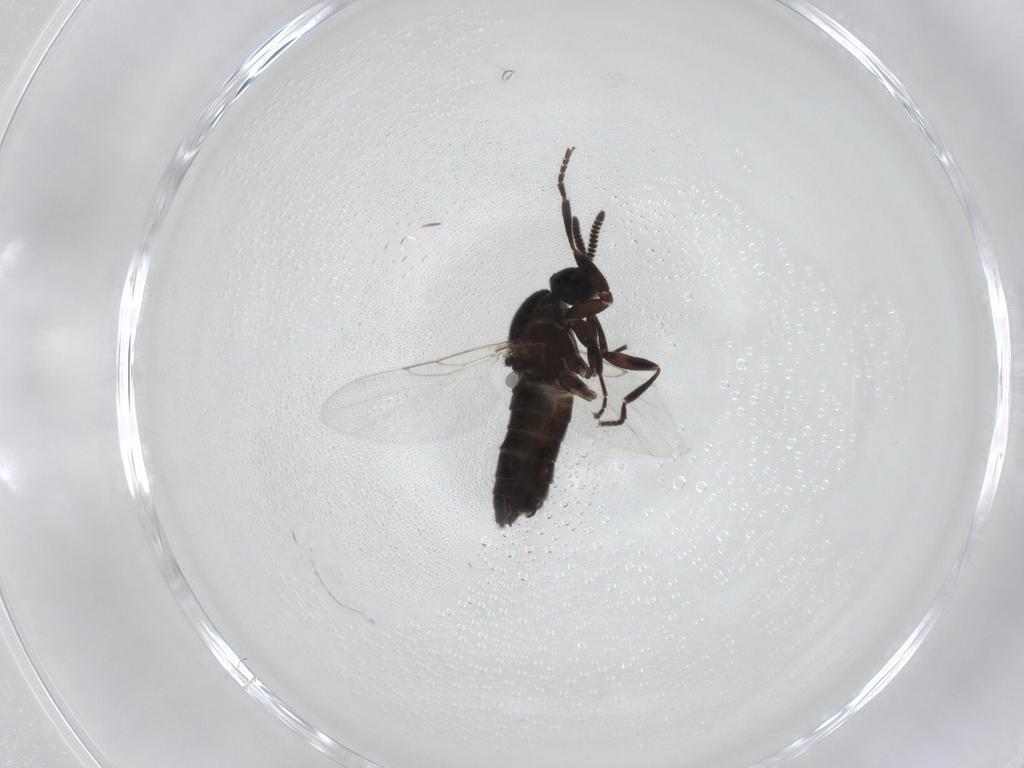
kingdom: Animalia
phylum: Arthropoda
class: Insecta
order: Diptera
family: Scatopsidae
